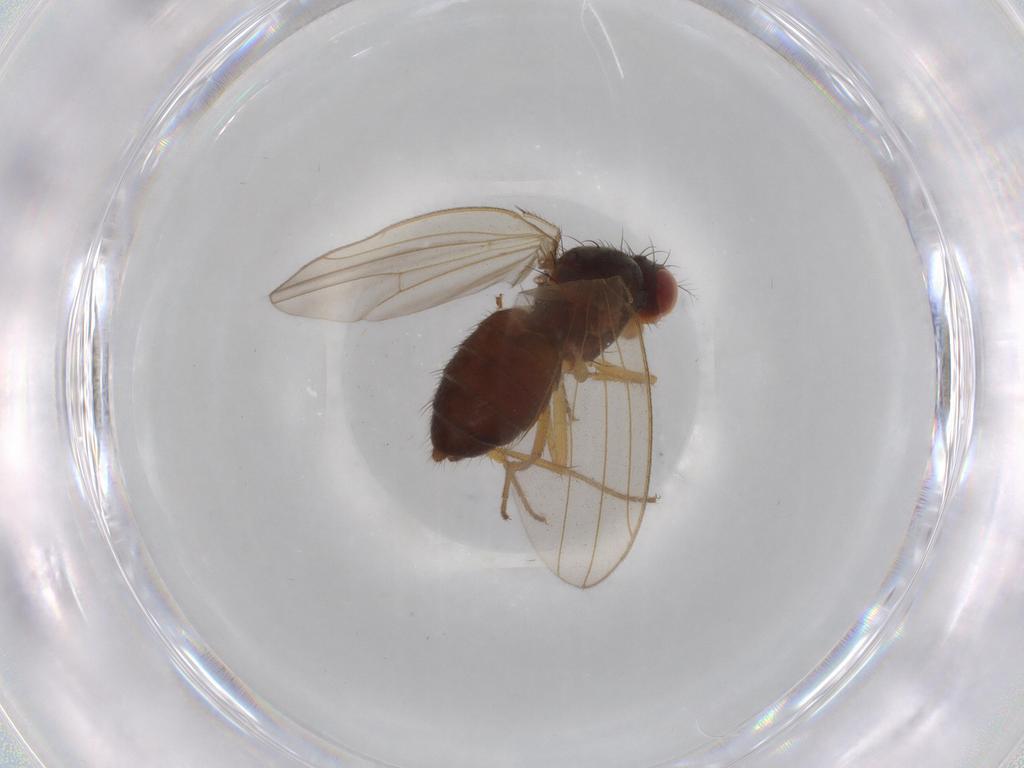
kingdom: Animalia
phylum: Arthropoda
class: Insecta
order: Diptera
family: Drosophilidae
